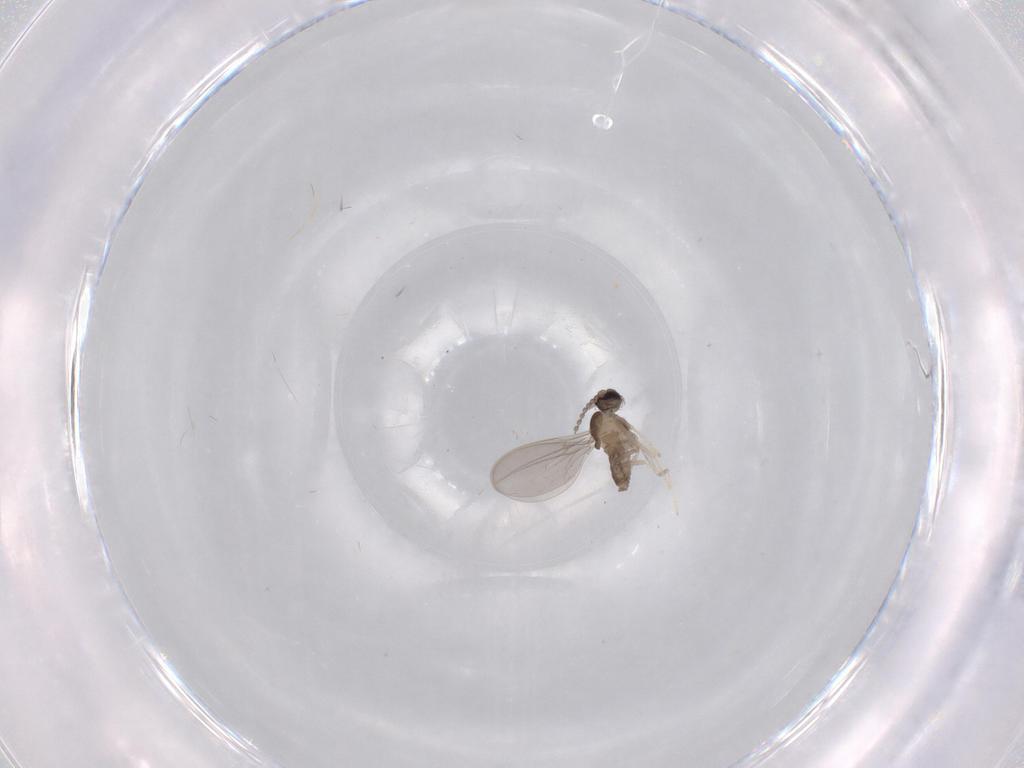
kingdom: Animalia
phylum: Arthropoda
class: Insecta
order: Diptera
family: Cecidomyiidae
